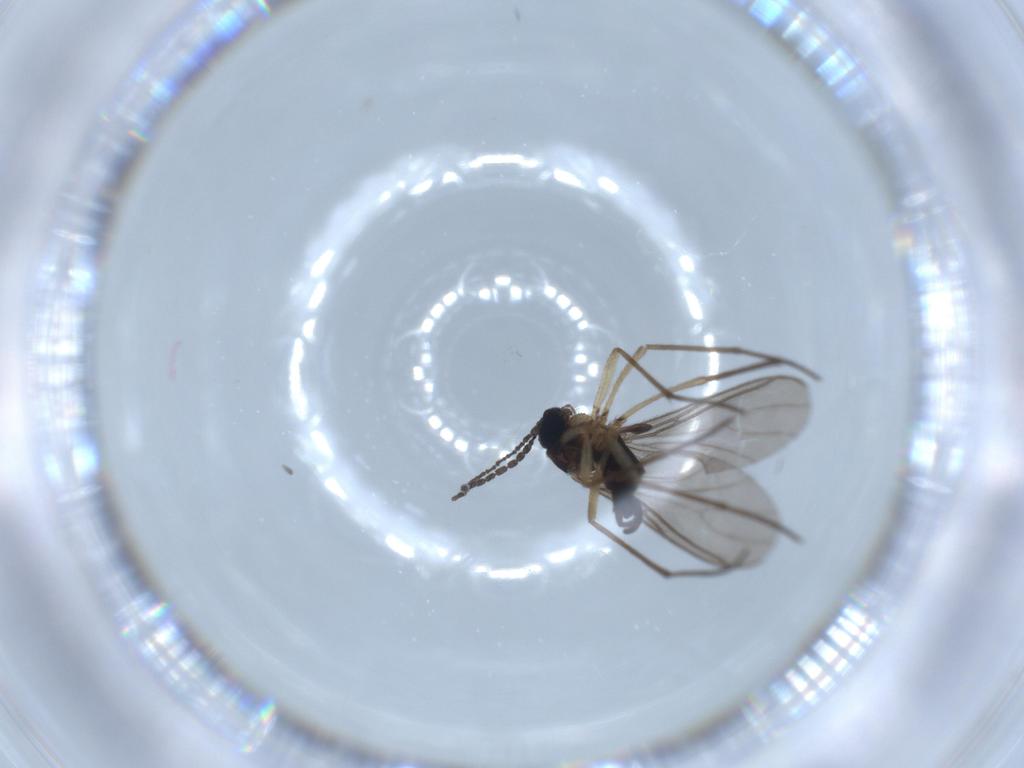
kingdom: Animalia
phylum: Arthropoda
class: Insecta
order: Diptera
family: Sciaridae
